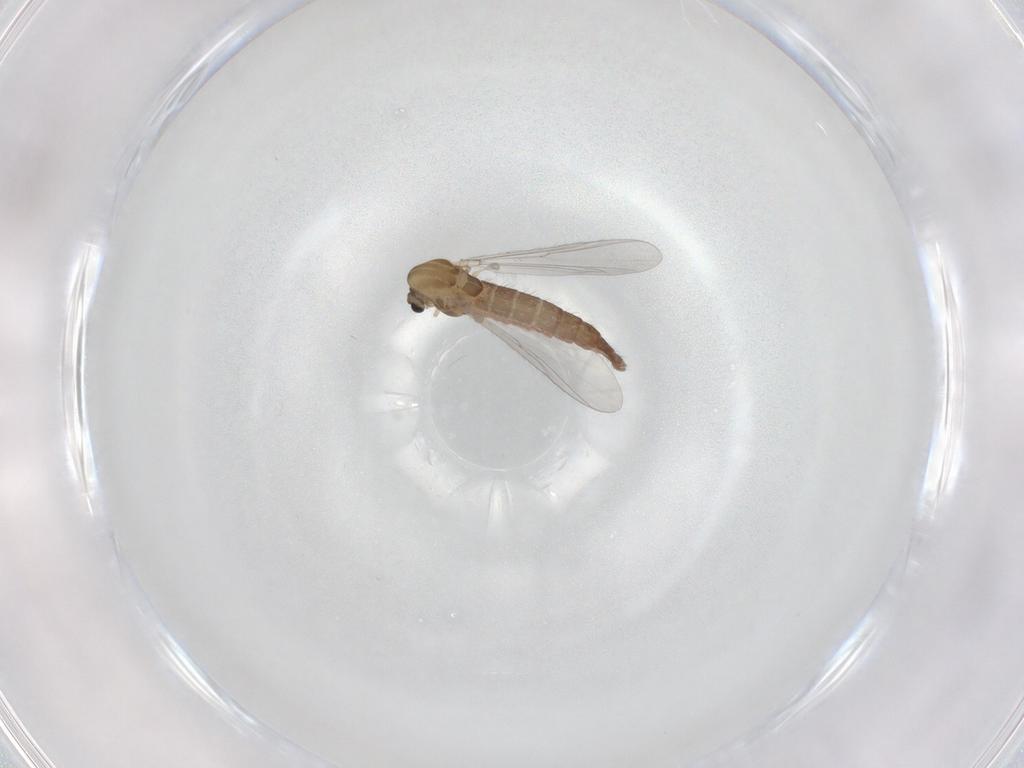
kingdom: Animalia
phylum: Arthropoda
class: Insecta
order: Diptera
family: Chironomidae
